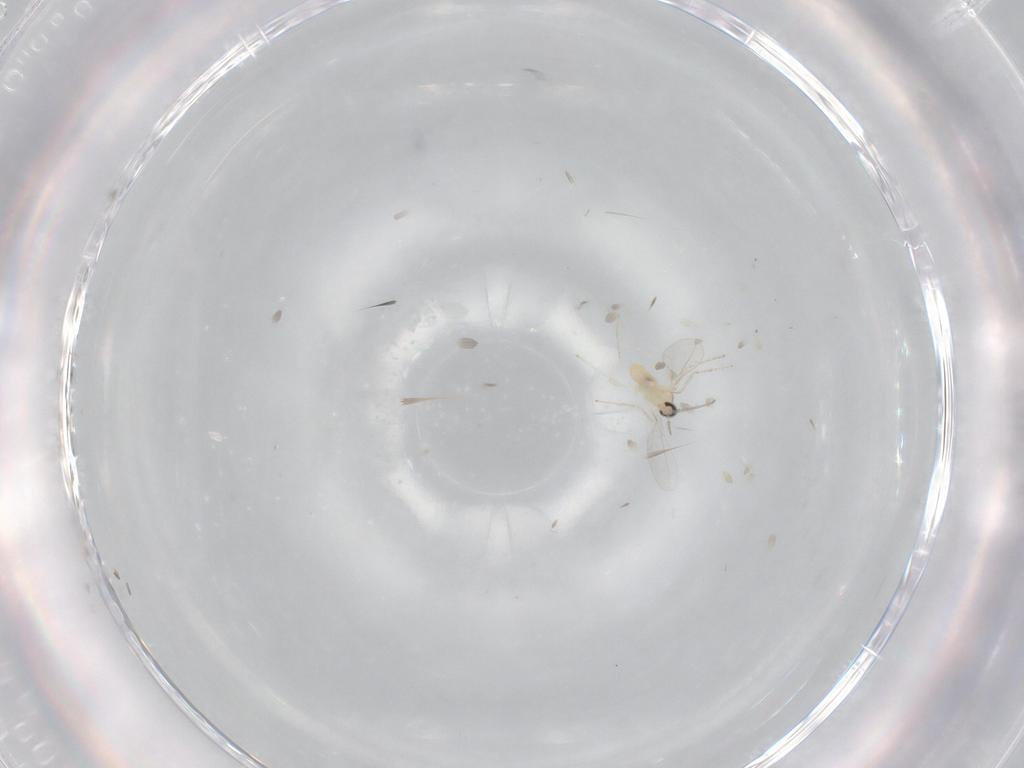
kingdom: Animalia
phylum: Arthropoda
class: Insecta
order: Diptera
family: Cecidomyiidae
